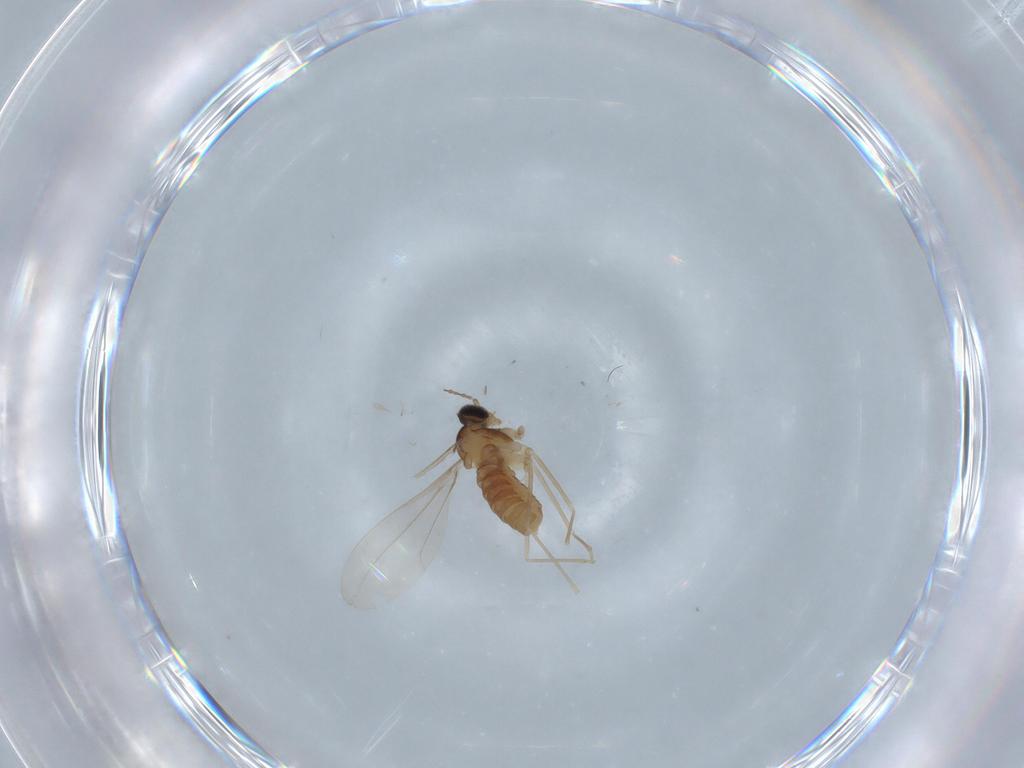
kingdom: Animalia
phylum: Arthropoda
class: Insecta
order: Diptera
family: Cecidomyiidae
